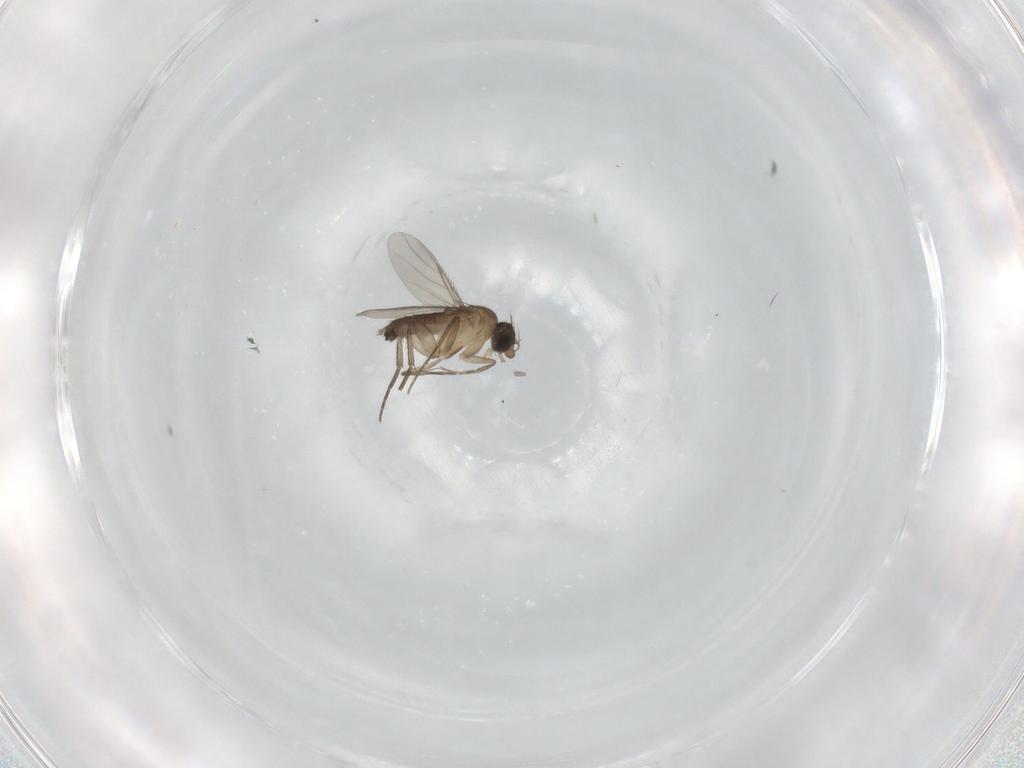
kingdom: Animalia
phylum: Arthropoda
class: Insecta
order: Diptera
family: Phoridae
